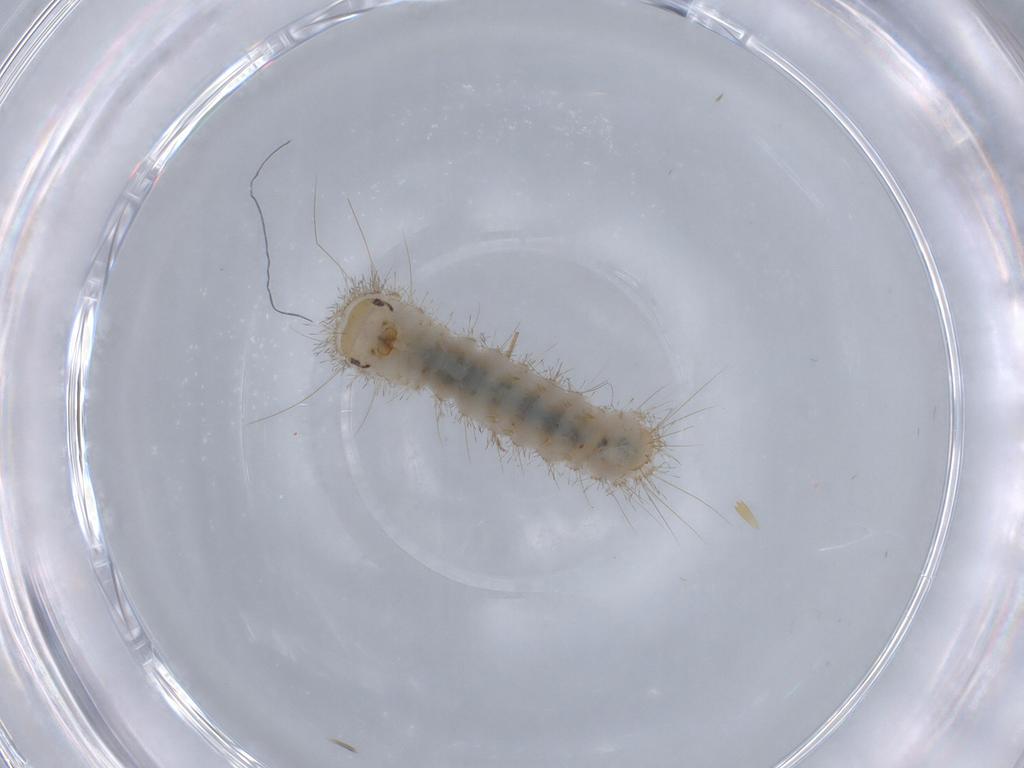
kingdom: Animalia
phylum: Arthropoda
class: Insecta
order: Lepidoptera
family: Erebidae
